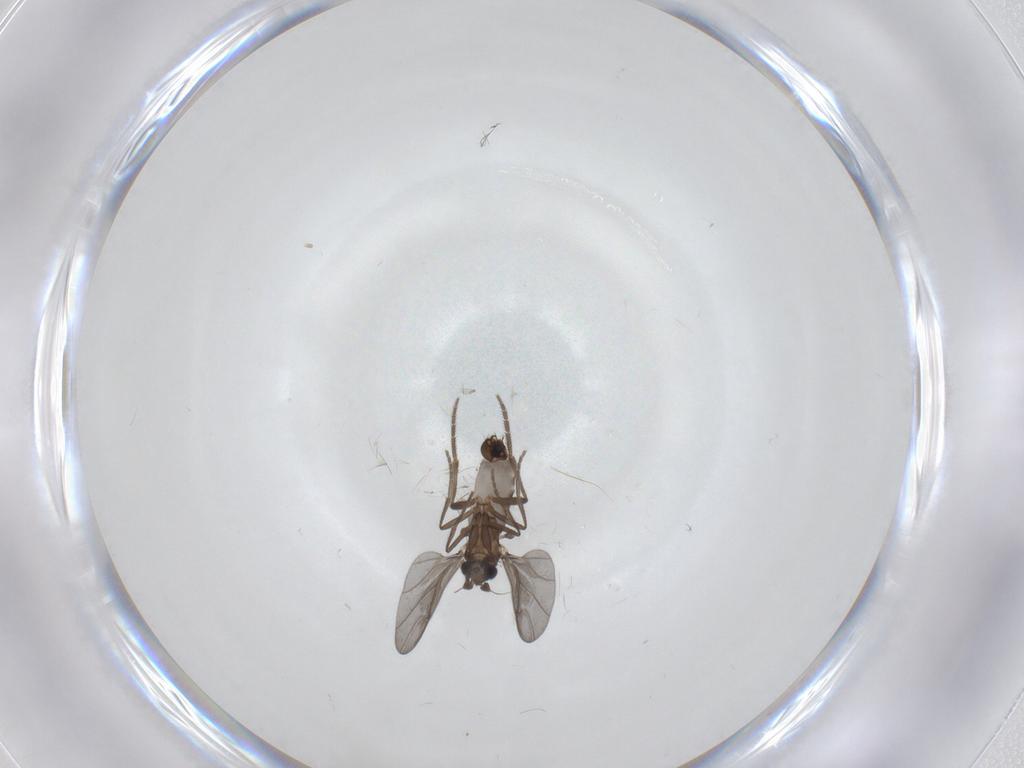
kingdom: Animalia
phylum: Arthropoda
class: Insecta
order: Diptera
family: Phoridae
